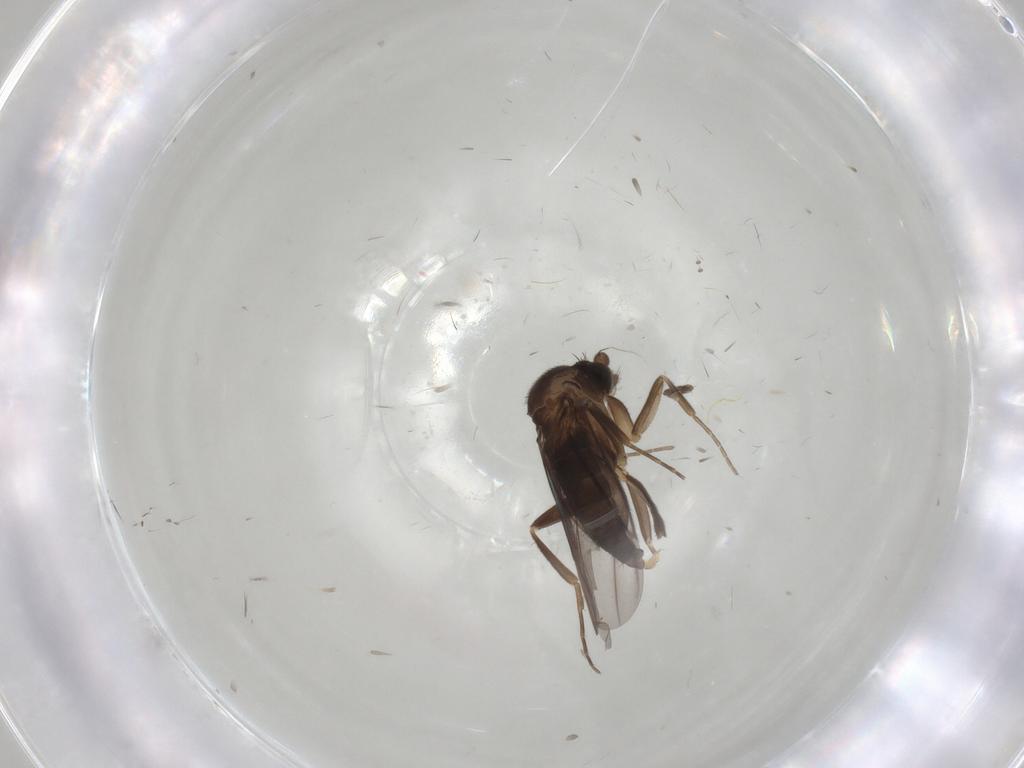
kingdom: Animalia
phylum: Arthropoda
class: Insecta
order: Diptera
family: Phoridae
